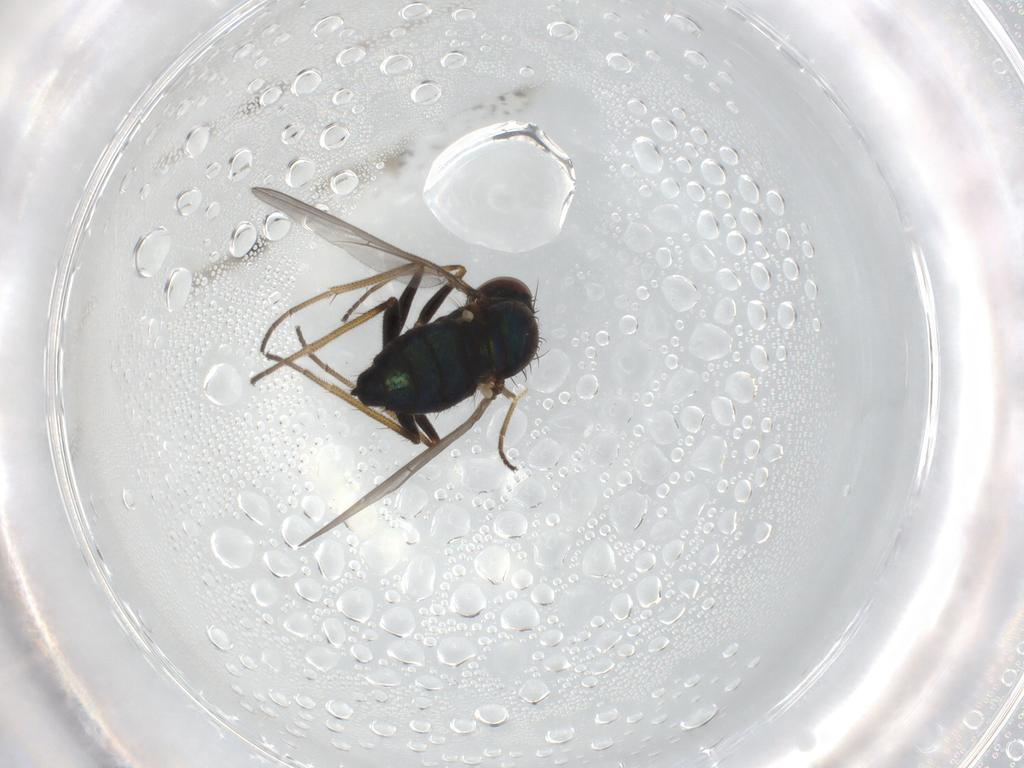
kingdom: Animalia
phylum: Arthropoda
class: Insecta
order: Diptera
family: Dolichopodidae
